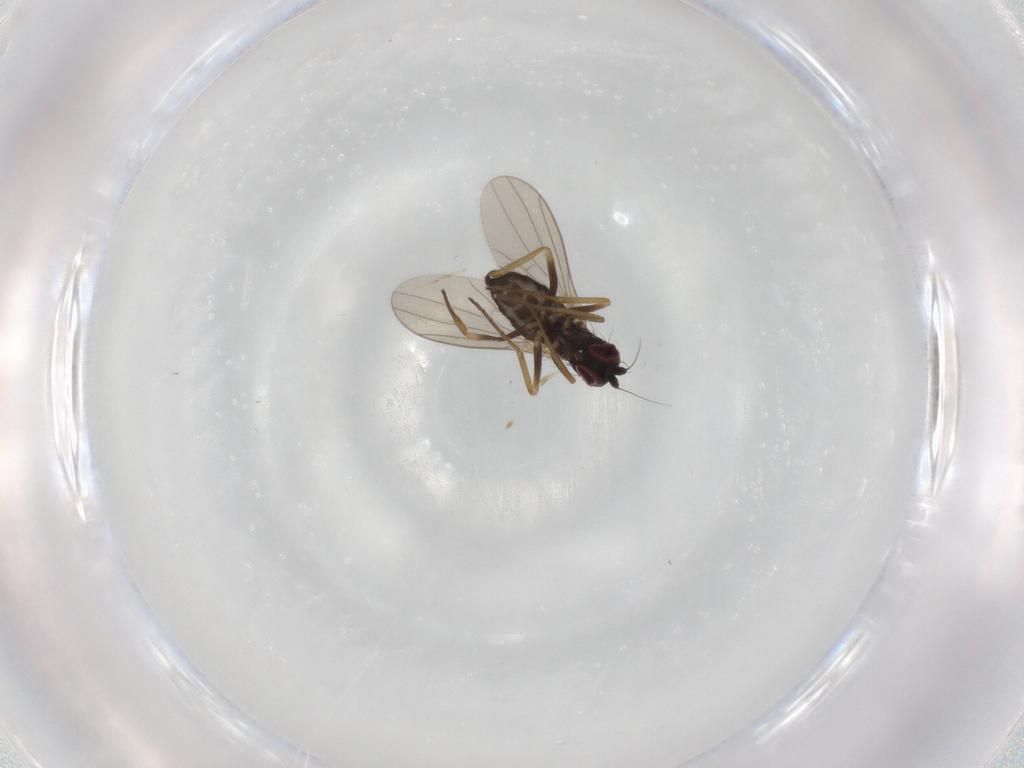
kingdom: Animalia
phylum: Arthropoda
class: Insecta
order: Diptera
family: Dolichopodidae
